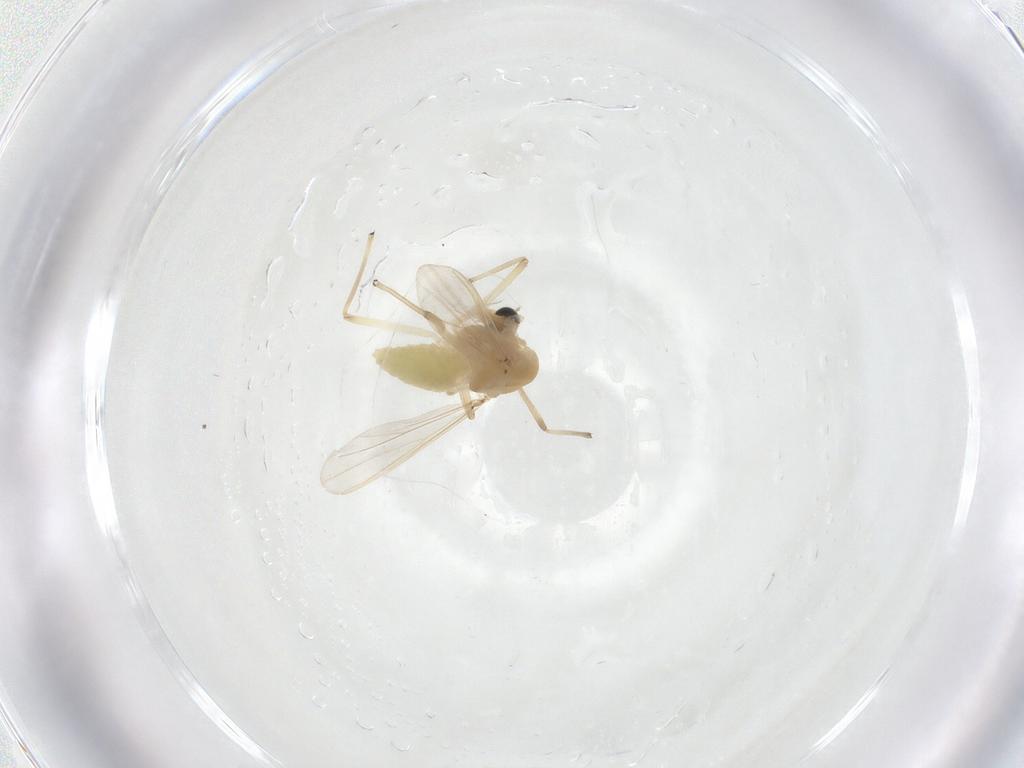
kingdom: Animalia
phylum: Arthropoda
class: Insecta
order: Diptera
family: Chironomidae
